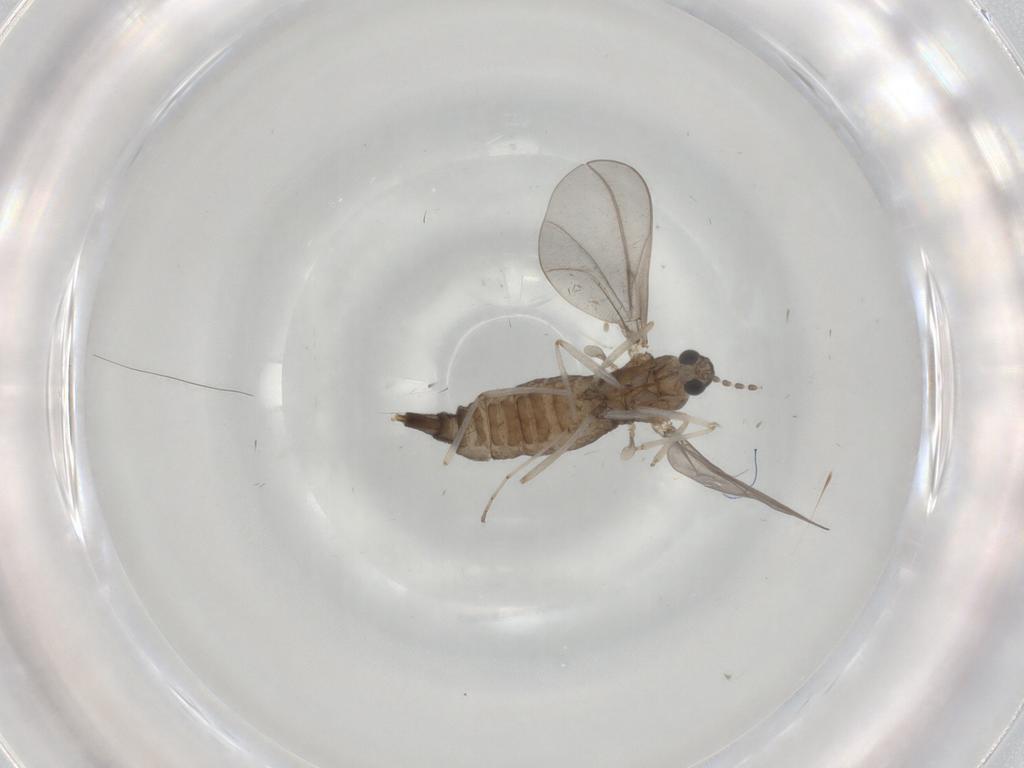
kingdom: Animalia
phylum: Arthropoda
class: Insecta
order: Diptera
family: Cecidomyiidae
